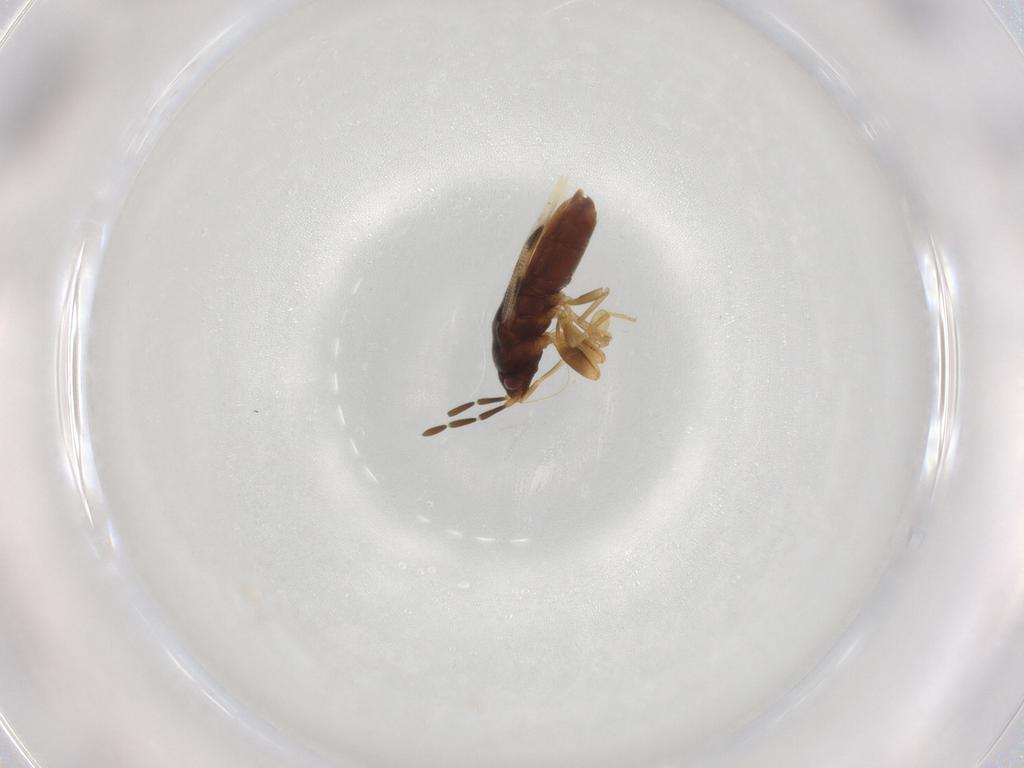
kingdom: Animalia
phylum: Arthropoda
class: Insecta
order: Hemiptera
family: Rhyparochromidae
